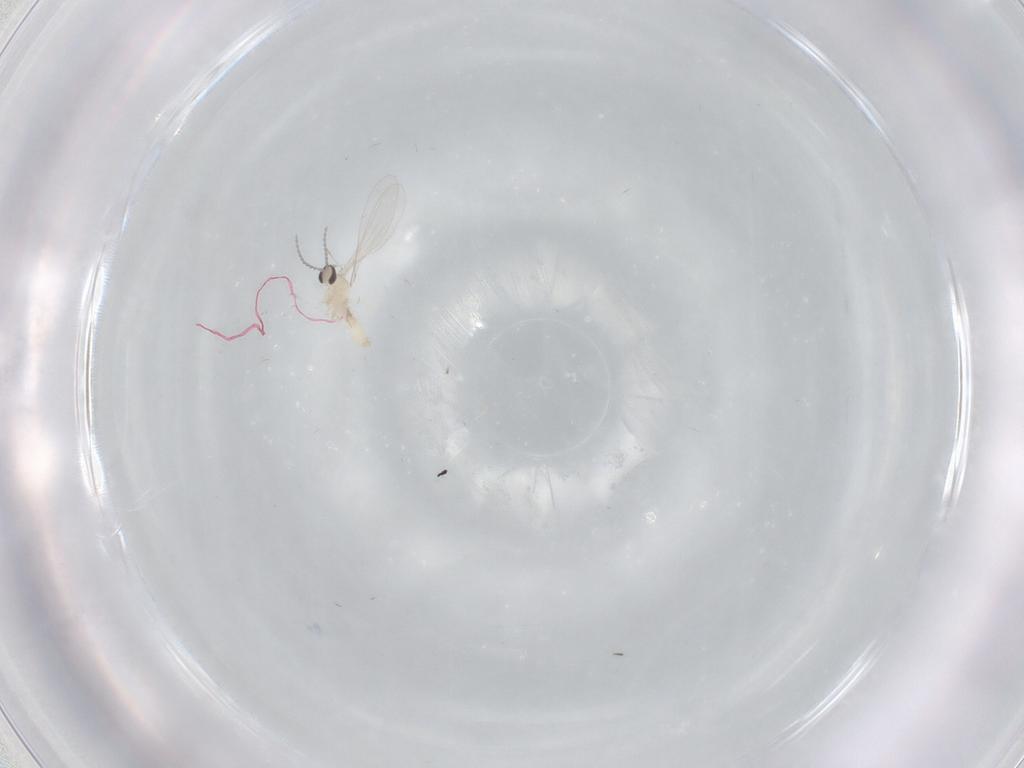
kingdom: Animalia
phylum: Arthropoda
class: Insecta
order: Diptera
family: Cecidomyiidae
